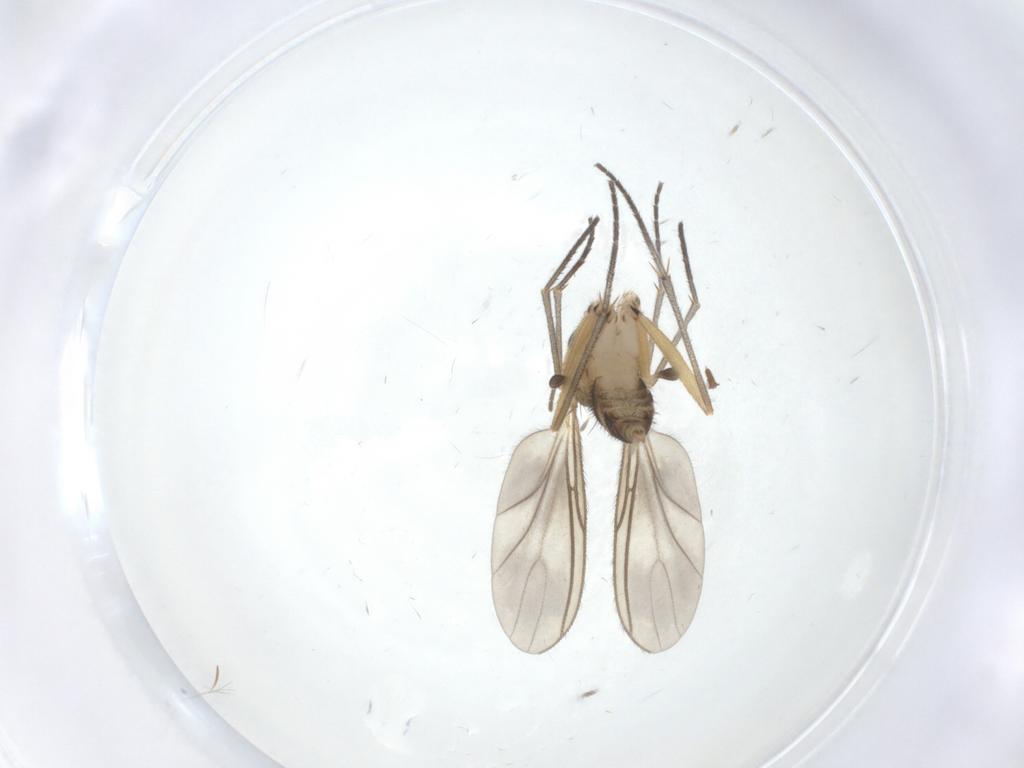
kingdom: Animalia
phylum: Arthropoda
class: Insecta
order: Diptera
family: Sciaridae
